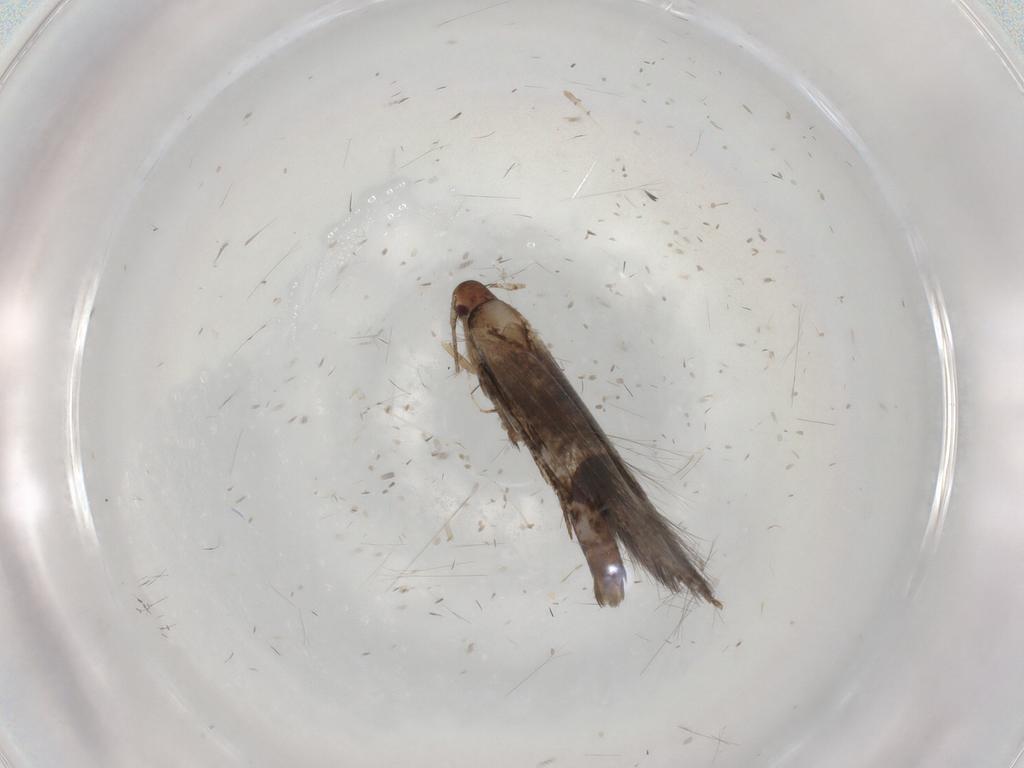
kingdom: Animalia
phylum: Arthropoda
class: Insecta
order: Lepidoptera
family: Cosmopterigidae
